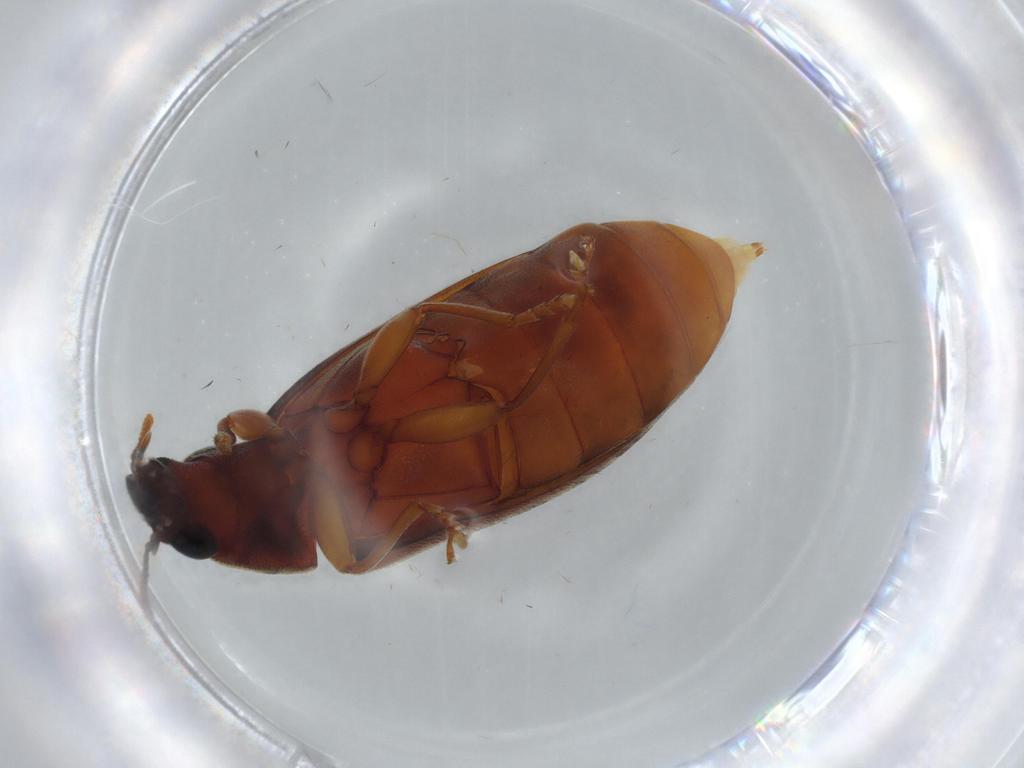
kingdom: Animalia
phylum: Arthropoda
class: Insecta
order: Coleoptera
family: Mycteridae
